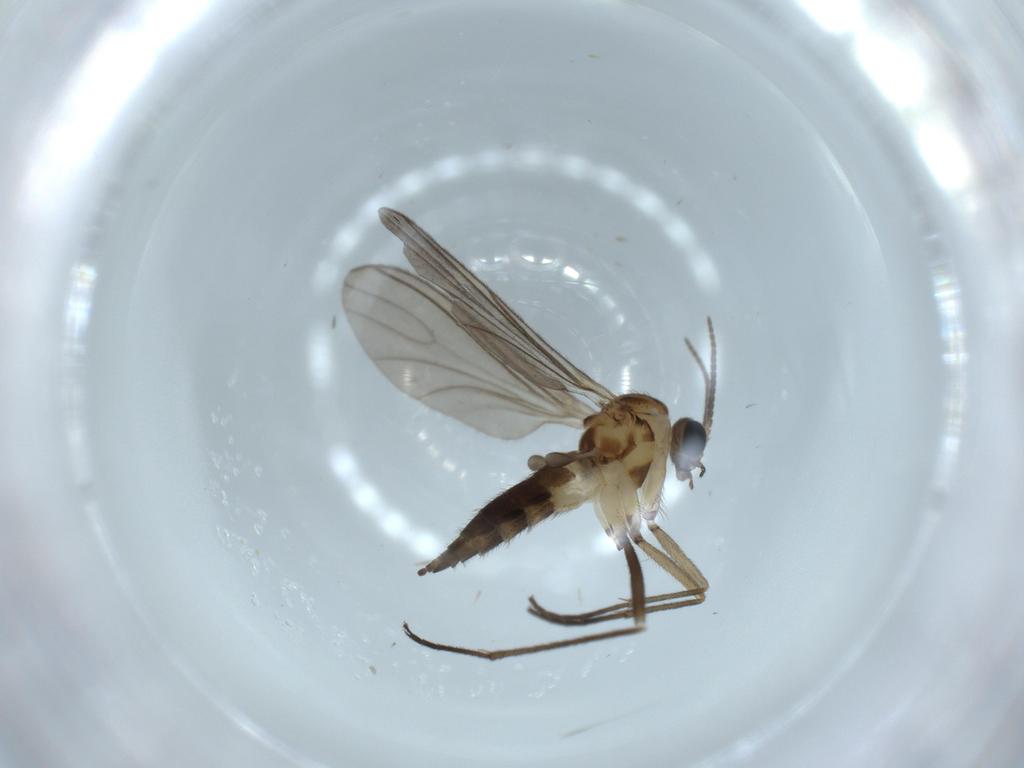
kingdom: Animalia
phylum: Arthropoda
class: Insecta
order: Diptera
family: Sciaridae
